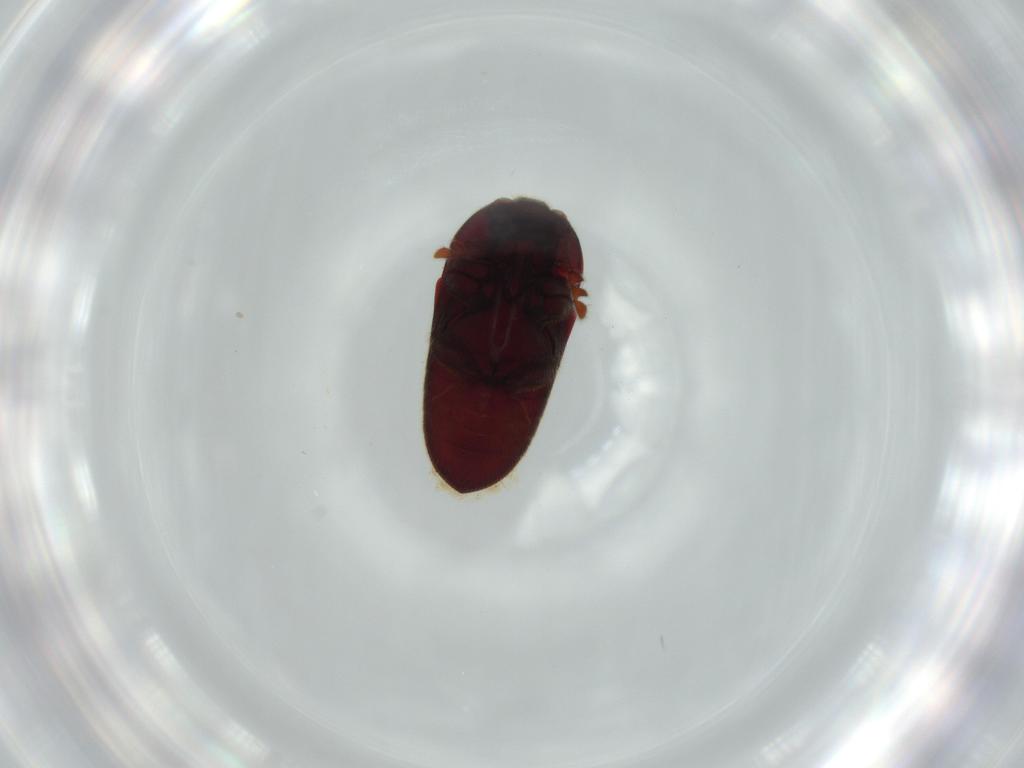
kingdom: Animalia
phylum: Arthropoda
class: Insecta
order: Coleoptera
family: Throscidae
